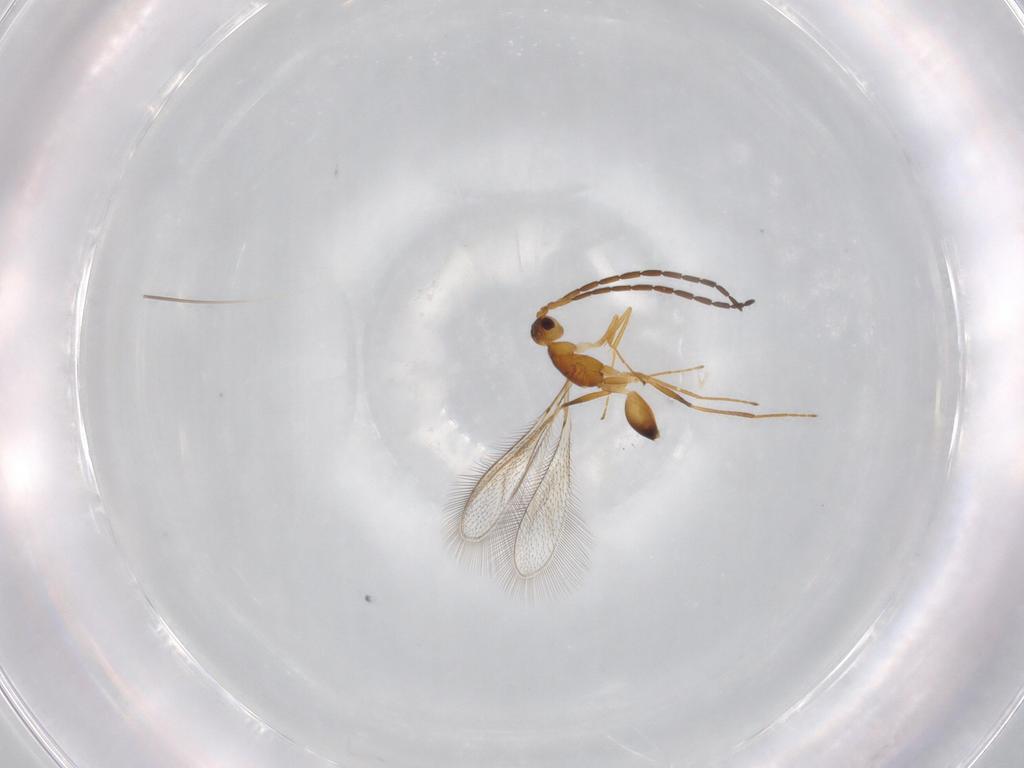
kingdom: Animalia
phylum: Arthropoda
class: Insecta
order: Hymenoptera
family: Mymaridae
